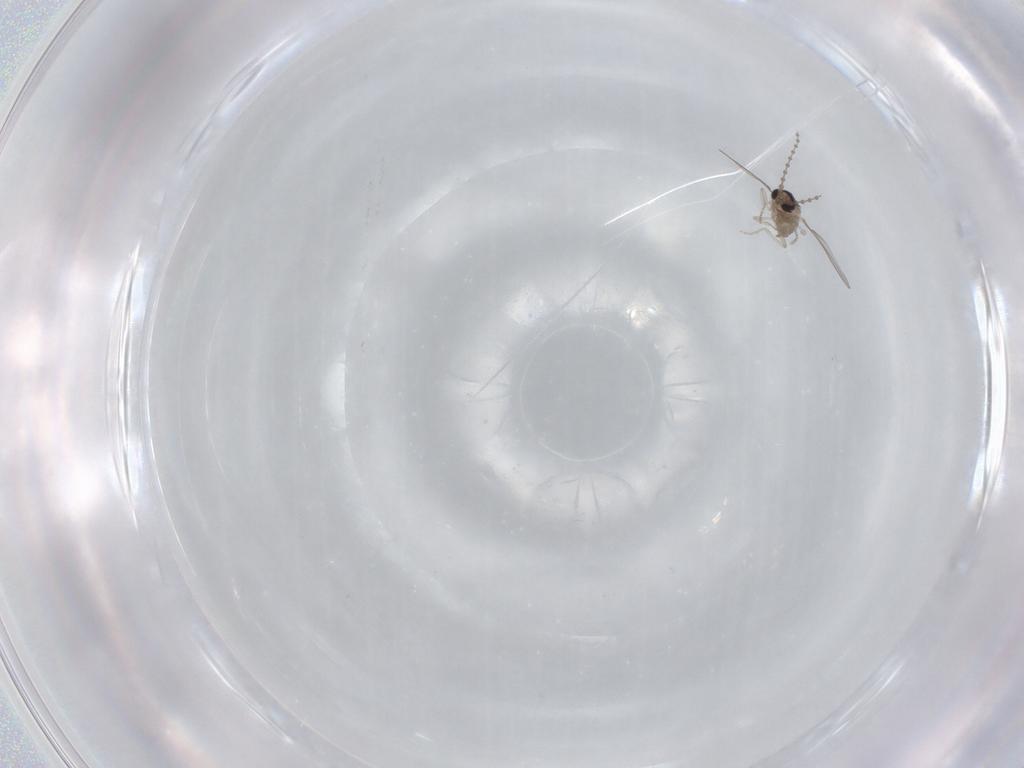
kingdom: Animalia
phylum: Arthropoda
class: Insecta
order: Diptera
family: Cecidomyiidae
